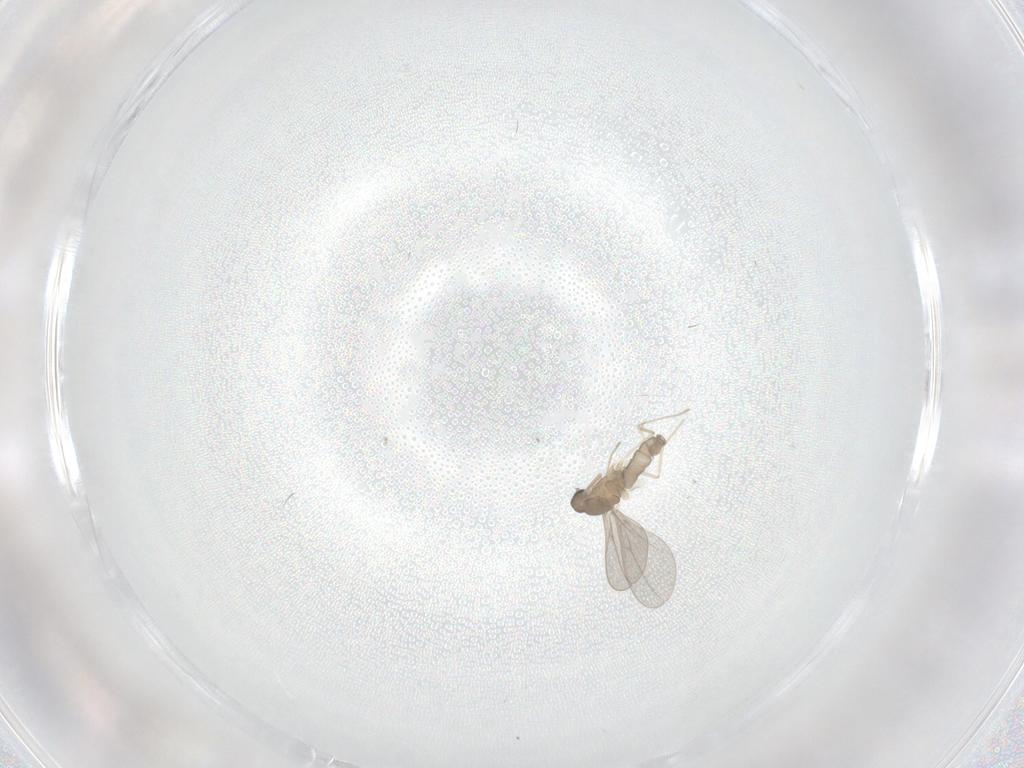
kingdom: Animalia
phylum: Arthropoda
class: Insecta
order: Diptera
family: Cecidomyiidae
